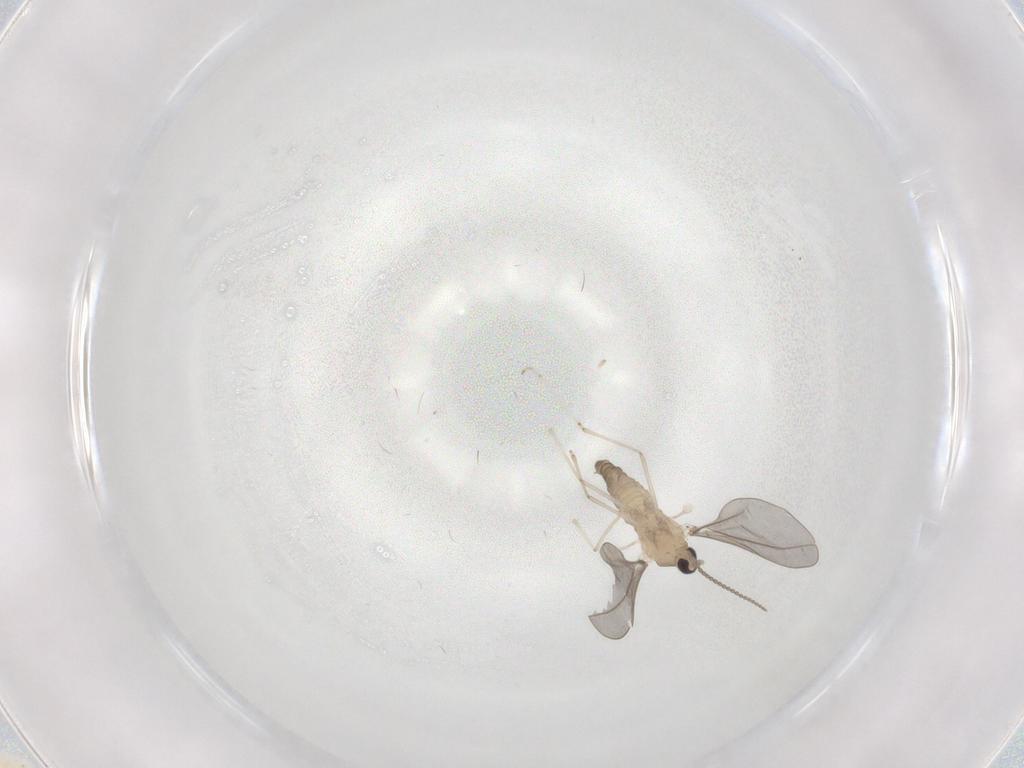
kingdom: Animalia
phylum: Arthropoda
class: Insecta
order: Diptera
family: Cecidomyiidae
